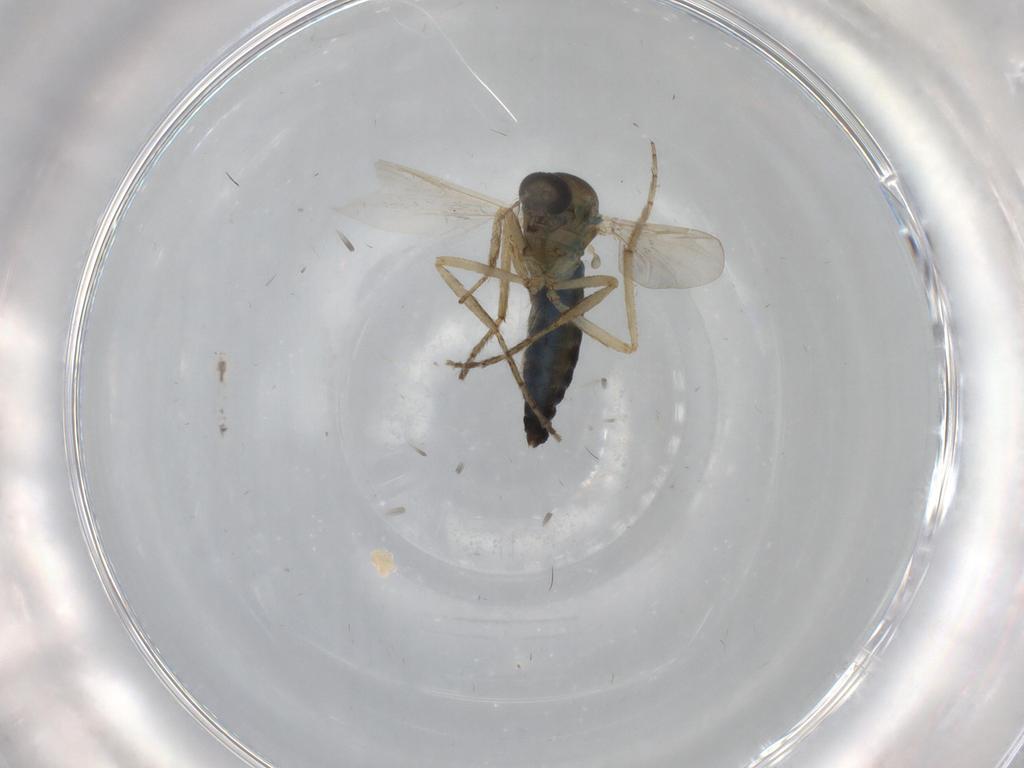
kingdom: Animalia
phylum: Arthropoda
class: Insecta
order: Diptera
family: Ceratopogonidae
